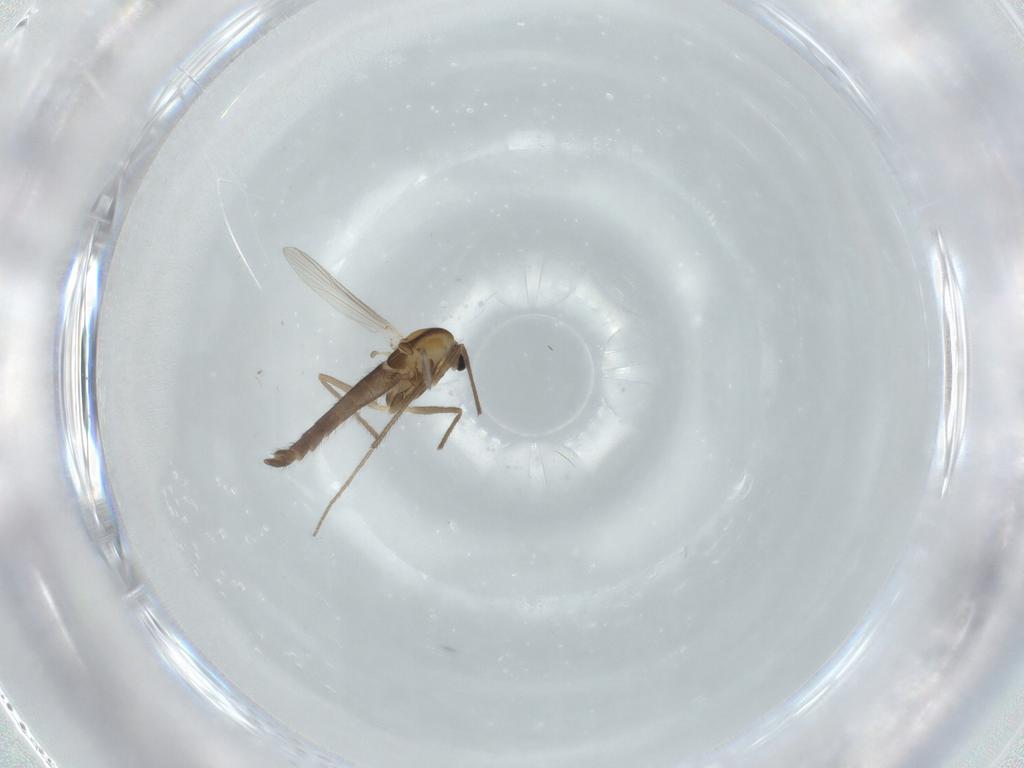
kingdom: Animalia
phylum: Arthropoda
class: Insecta
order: Diptera
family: Chironomidae
